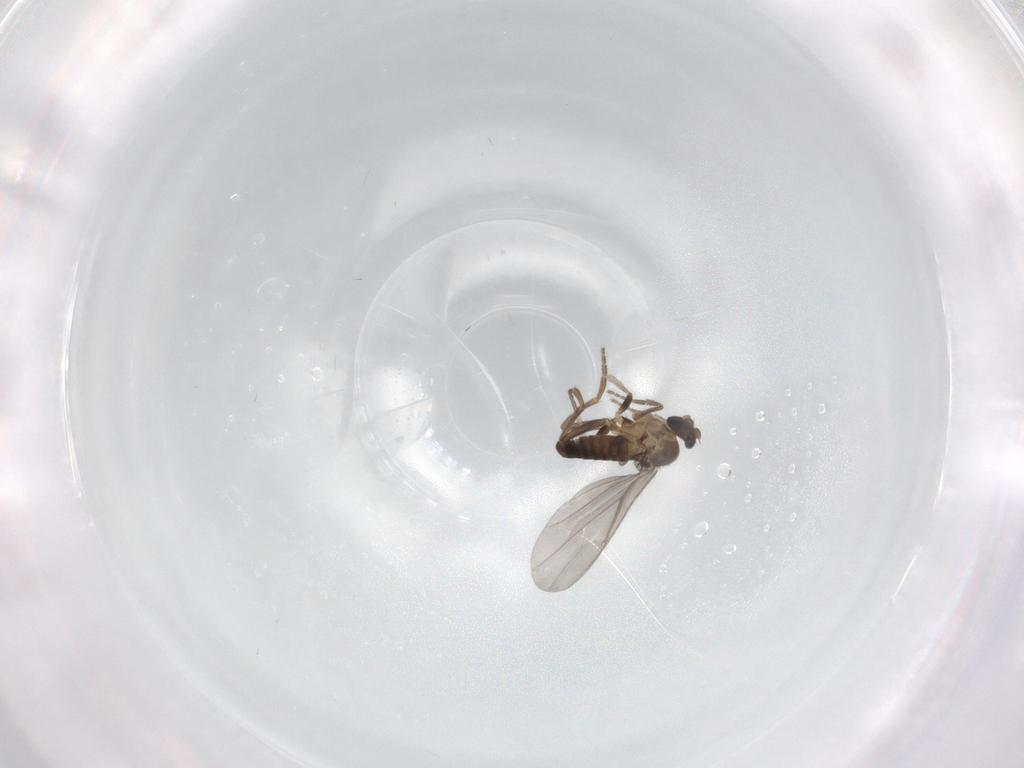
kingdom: Animalia
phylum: Arthropoda
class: Insecta
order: Diptera
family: Phoridae
